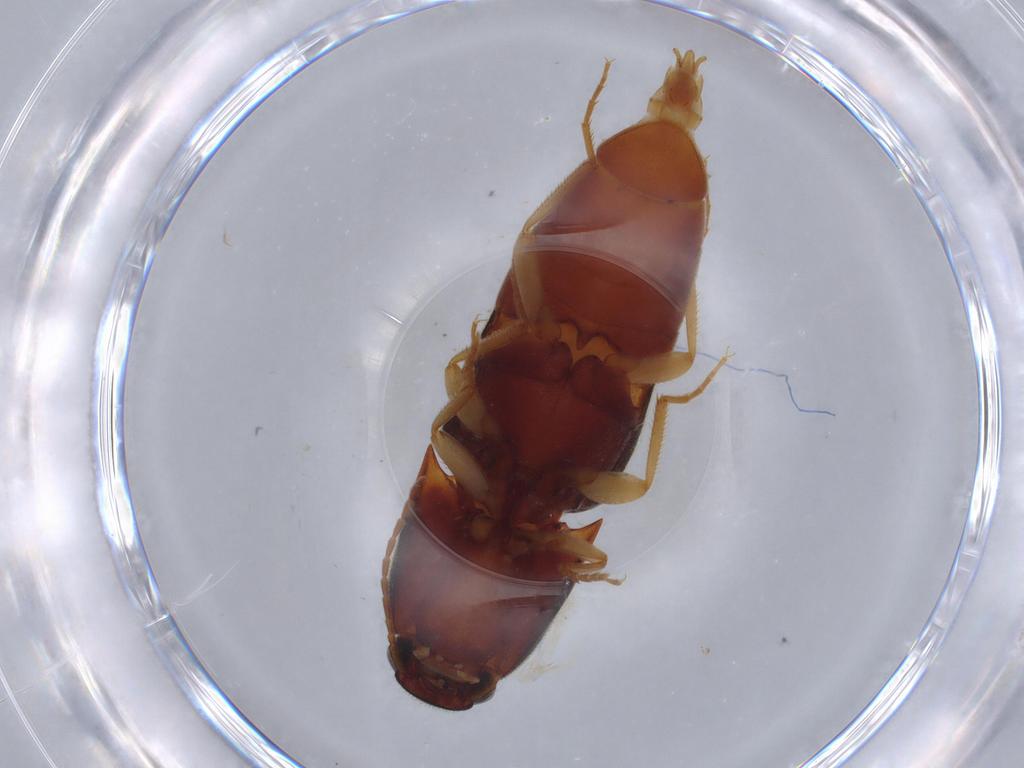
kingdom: Animalia
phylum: Arthropoda
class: Insecta
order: Coleoptera
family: Elateridae
